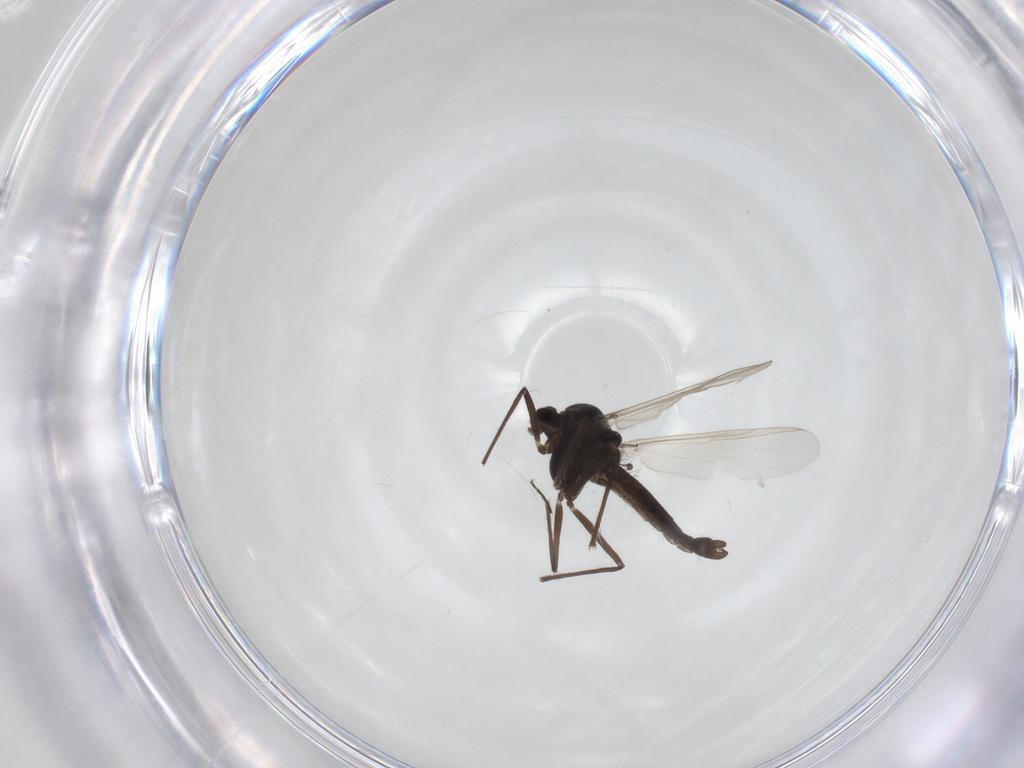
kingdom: Animalia
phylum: Arthropoda
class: Insecta
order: Diptera
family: Chironomidae
